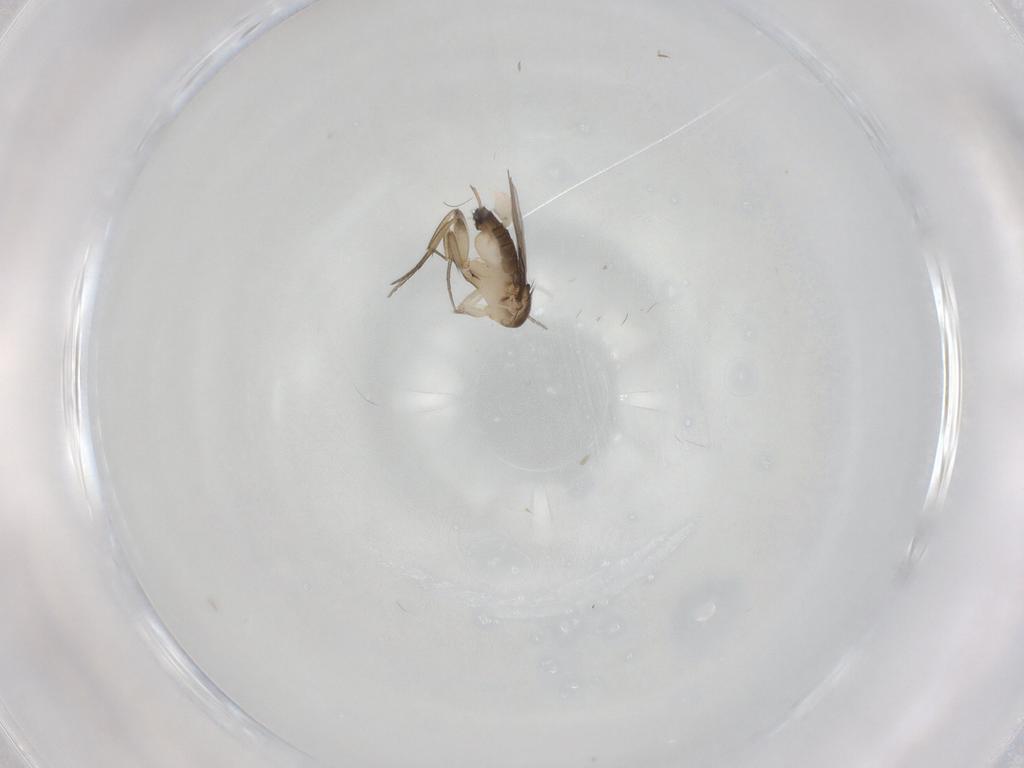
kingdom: Animalia
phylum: Arthropoda
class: Insecta
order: Diptera
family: Phoridae
